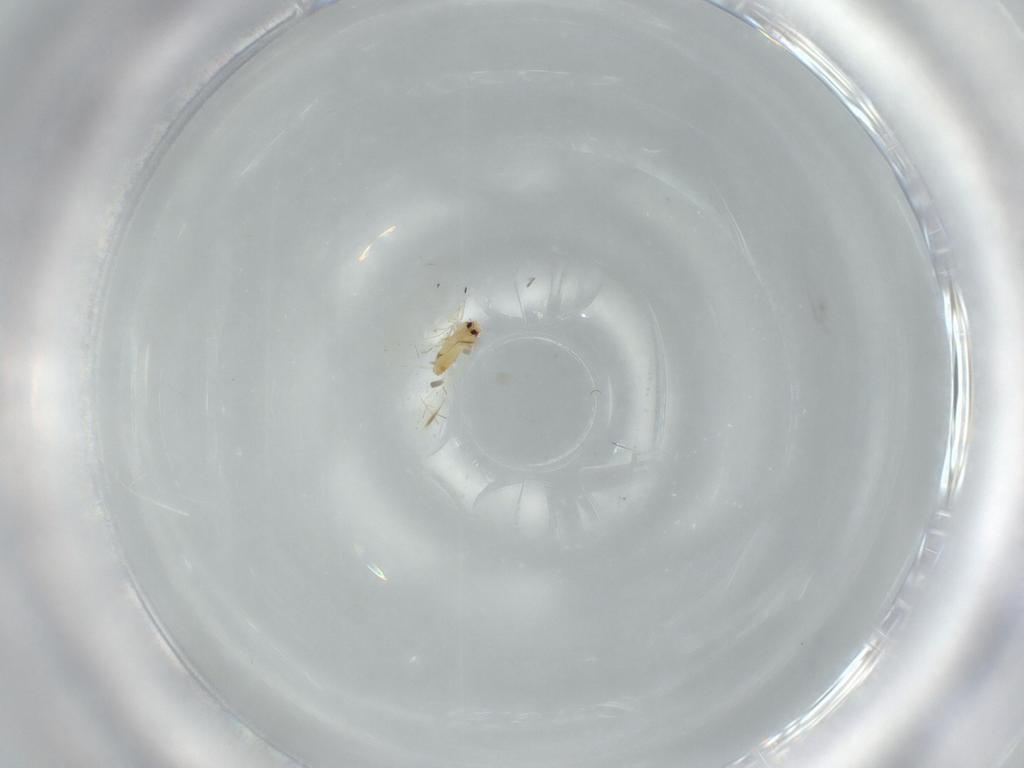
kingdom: Animalia
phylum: Arthropoda
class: Insecta
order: Hemiptera
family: Aleyrodidae
